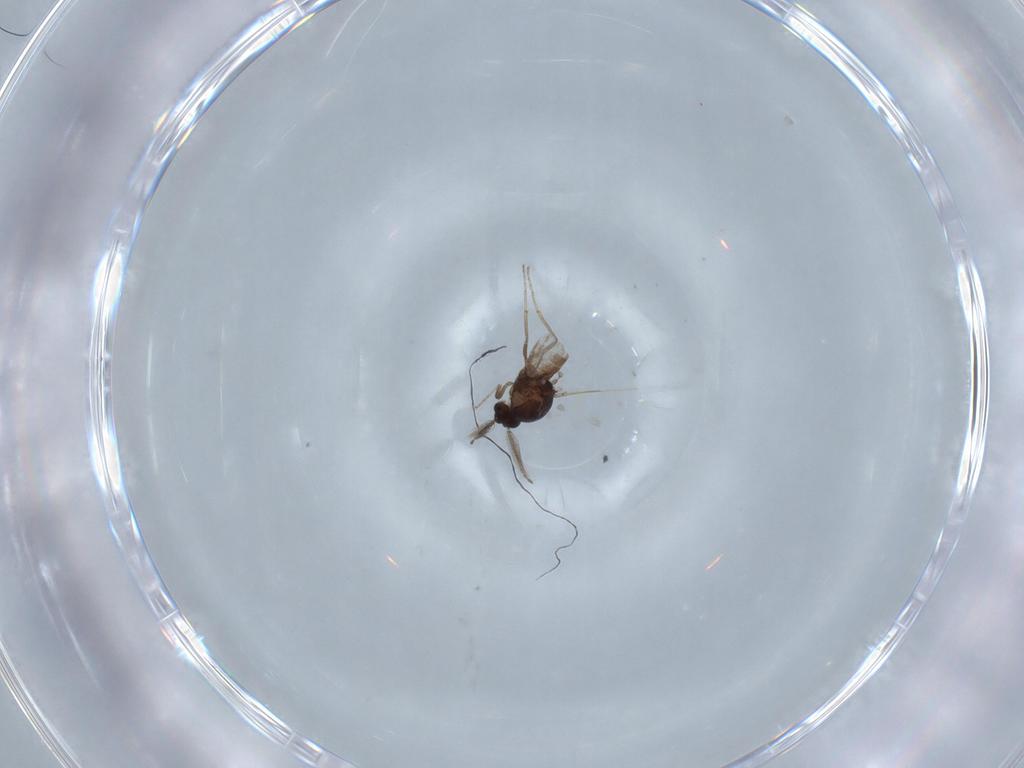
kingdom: Animalia
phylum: Arthropoda
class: Insecta
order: Diptera
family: Ceratopogonidae
